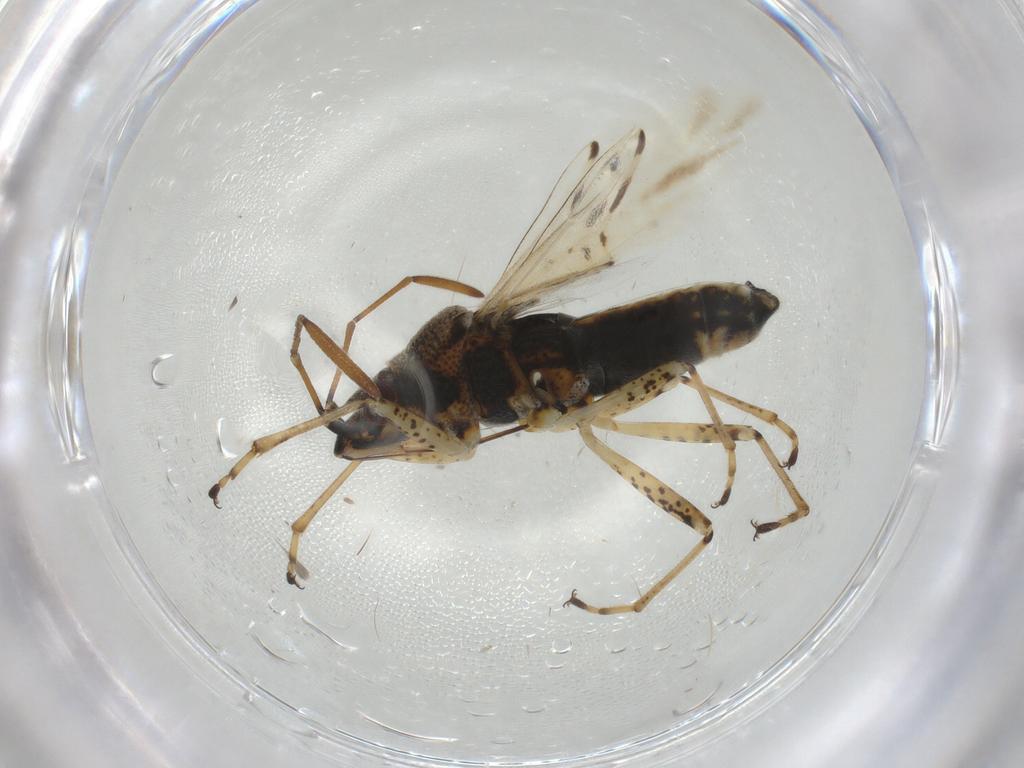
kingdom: Animalia
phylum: Arthropoda
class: Insecta
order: Hemiptera
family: Lygaeidae
